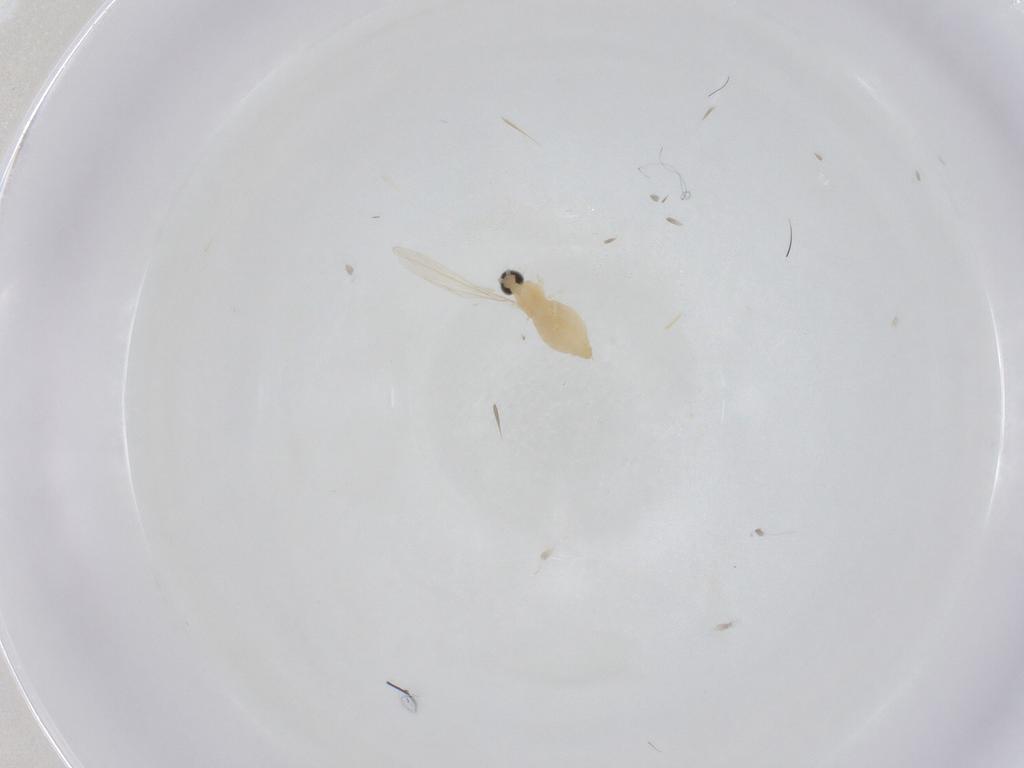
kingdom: Animalia
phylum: Arthropoda
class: Insecta
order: Diptera
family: Cecidomyiidae
